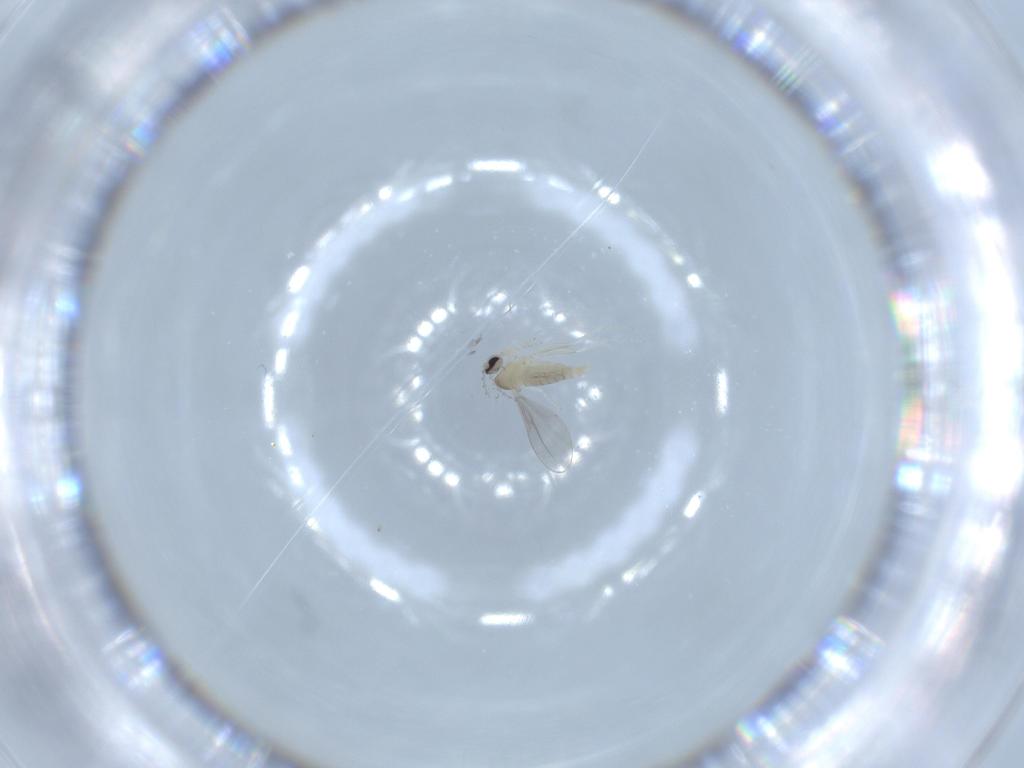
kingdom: Animalia
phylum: Arthropoda
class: Insecta
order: Diptera
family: Cecidomyiidae
